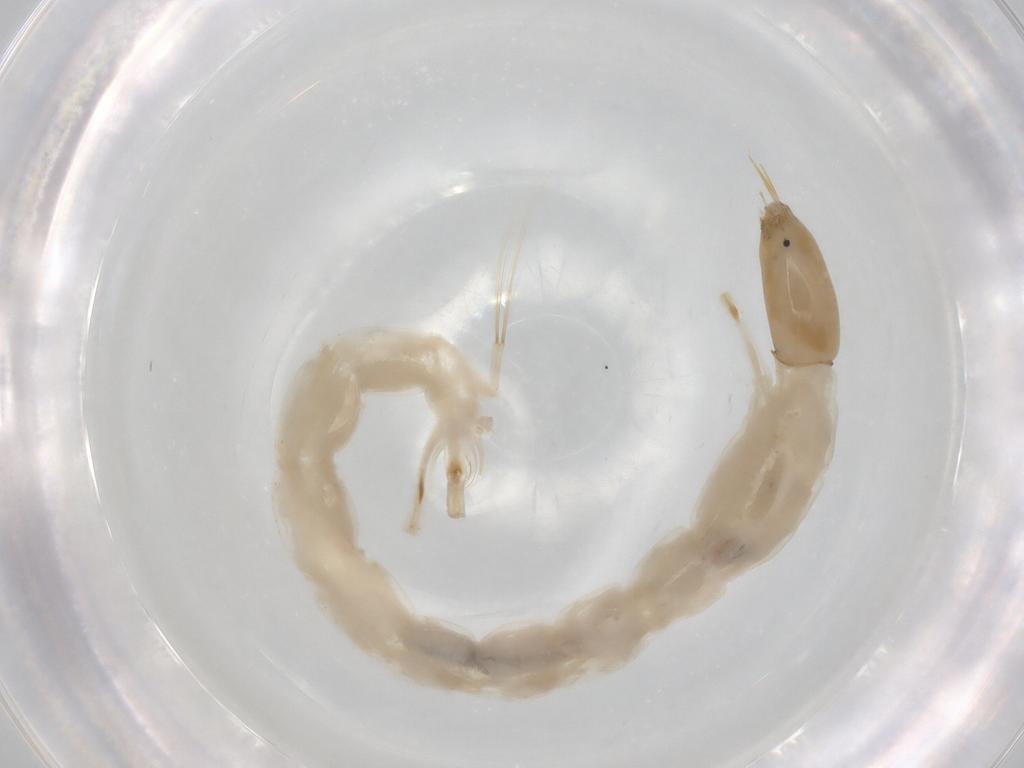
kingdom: Animalia
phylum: Arthropoda
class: Insecta
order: Diptera
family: Chironomidae
